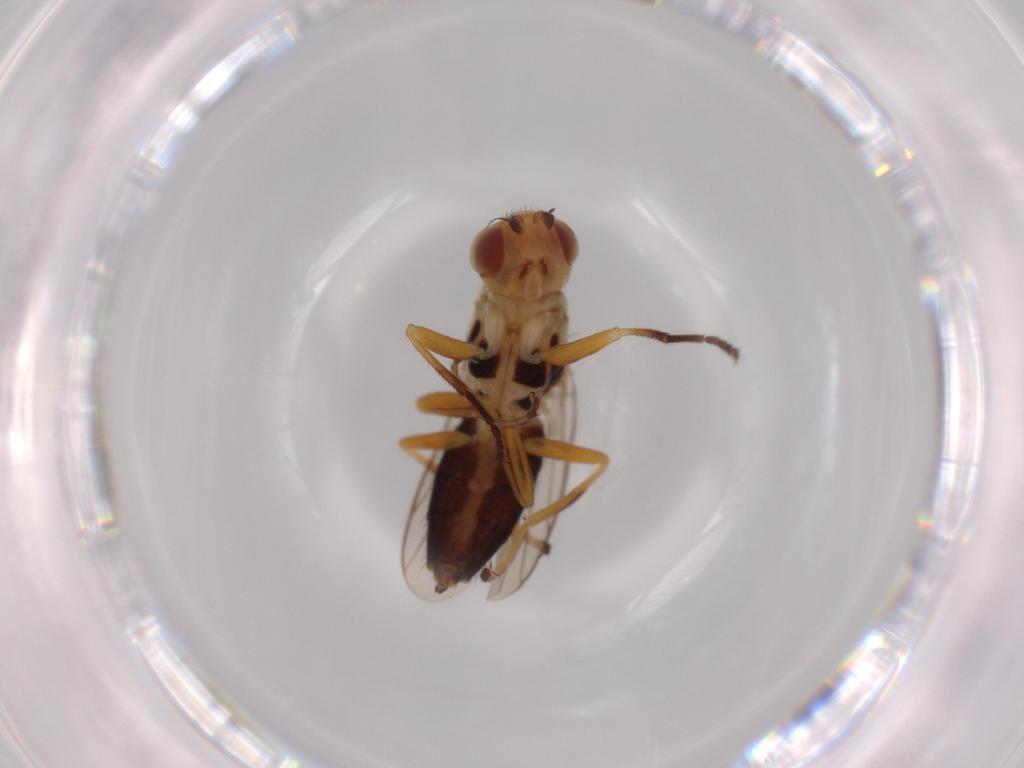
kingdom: Animalia
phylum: Arthropoda
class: Insecta
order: Diptera
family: Chloropidae
